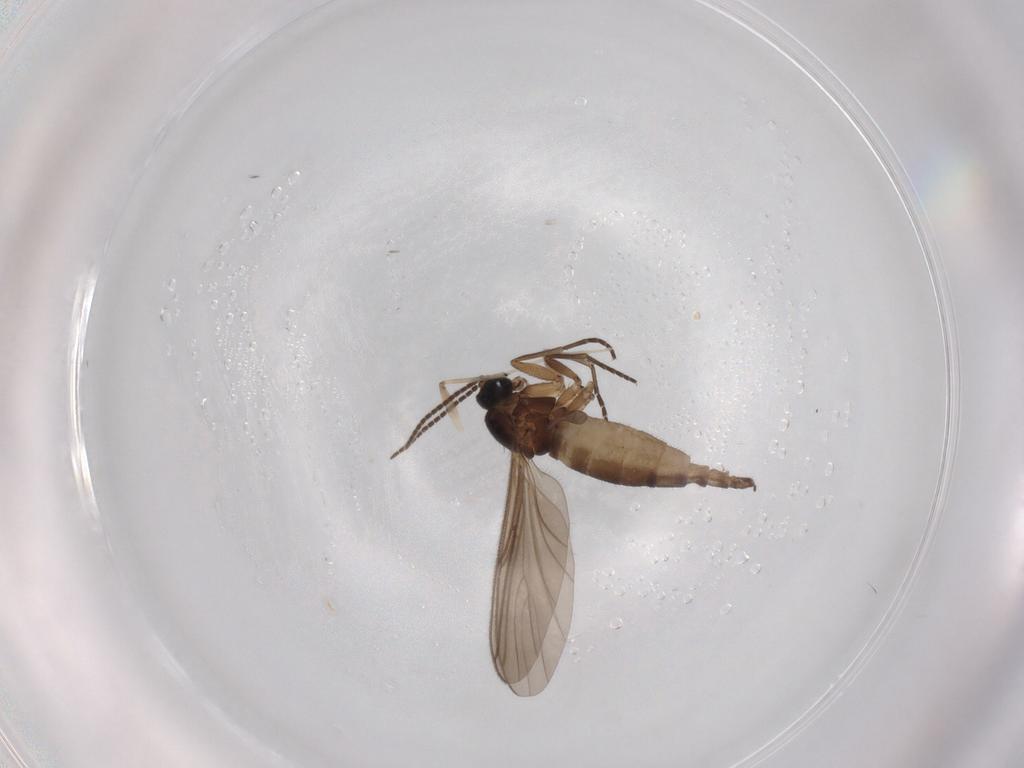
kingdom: Animalia
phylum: Arthropoda
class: Insecta
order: Diptera
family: Sciaridae
